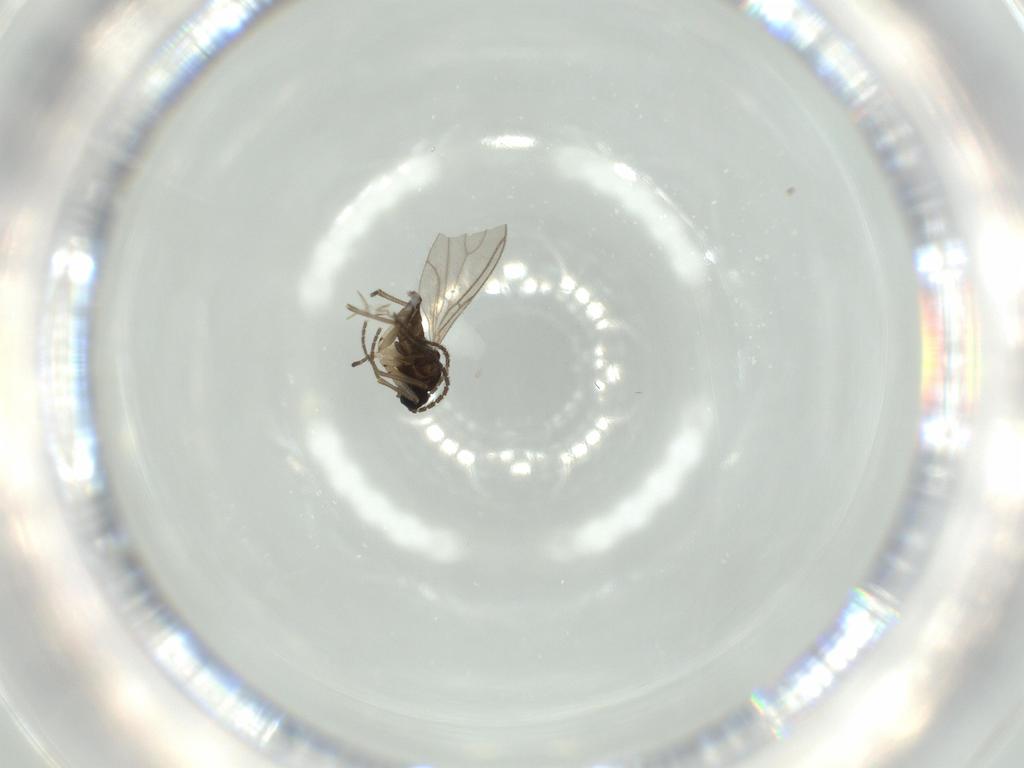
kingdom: Animalia
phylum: Arthropoda
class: Insecta
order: Diptera
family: Sciaridae
